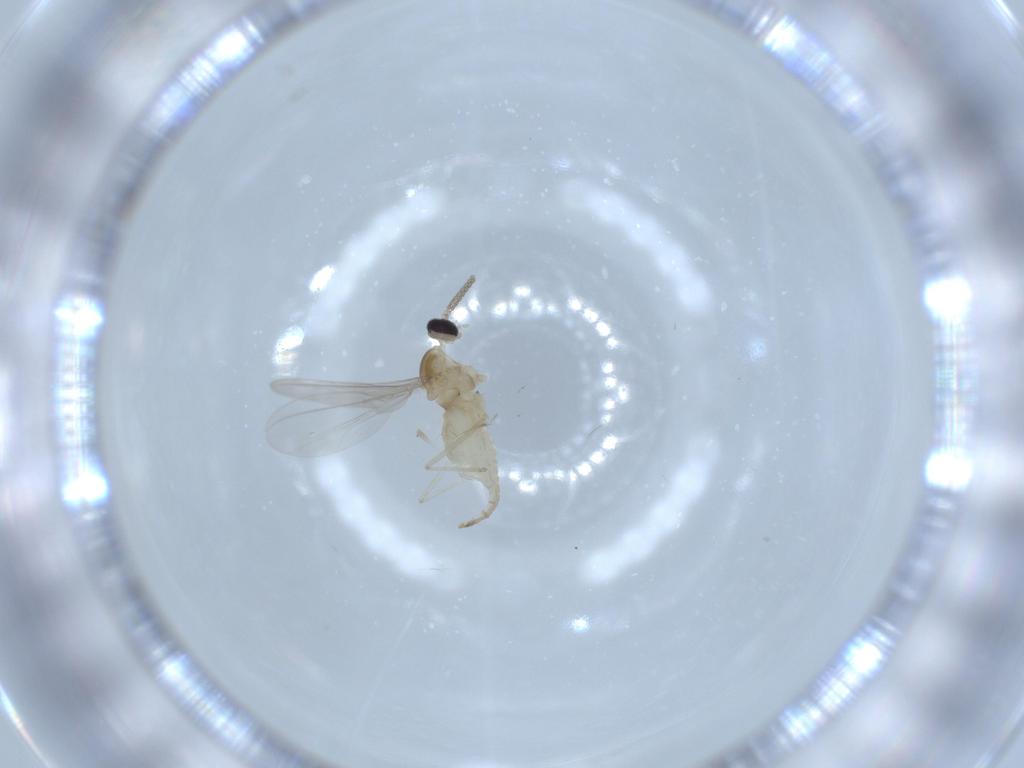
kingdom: Animalia
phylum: Arthropoda
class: Insecta
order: Diptera
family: Cecidomyiidae
